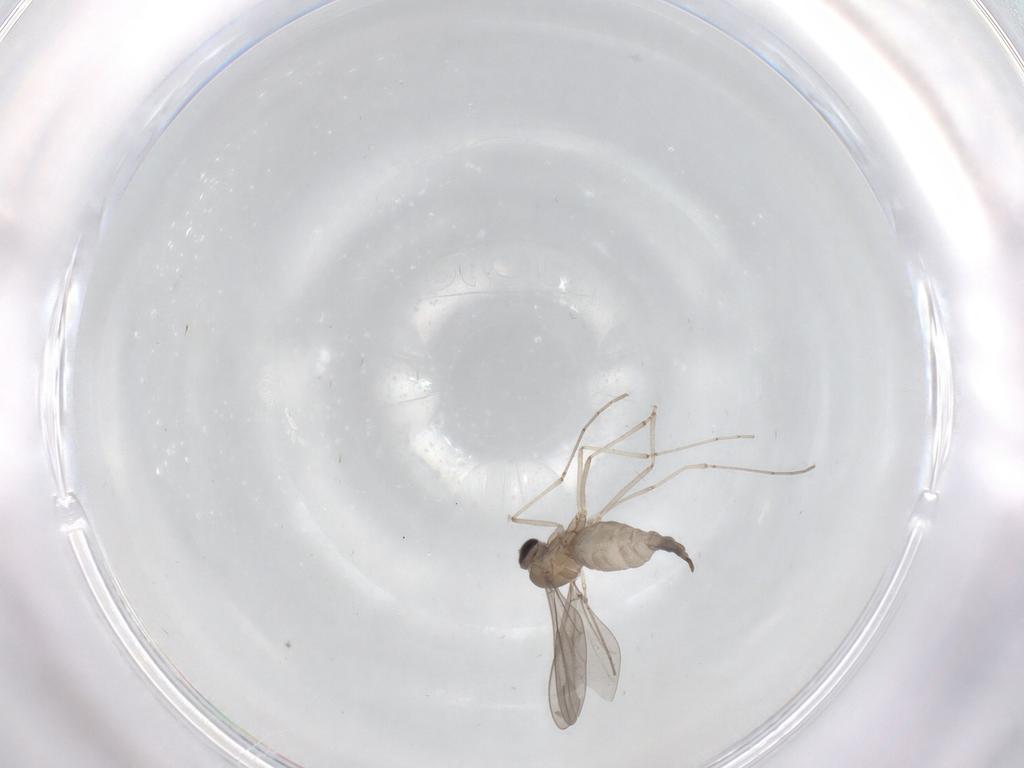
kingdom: Animalia
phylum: Arthropoda
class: Insecta
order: Diptera
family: Cecidomyiidae
